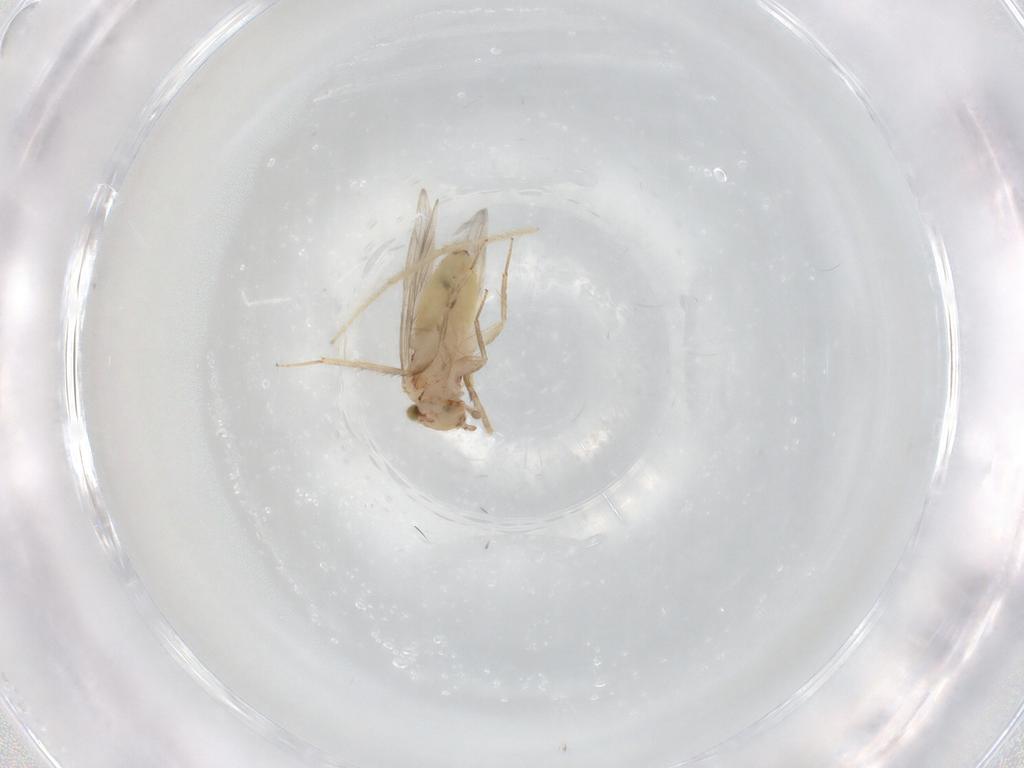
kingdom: Animalia
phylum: Arthropoda
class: Insecta
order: Psocodea
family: Lepidopsocidae
